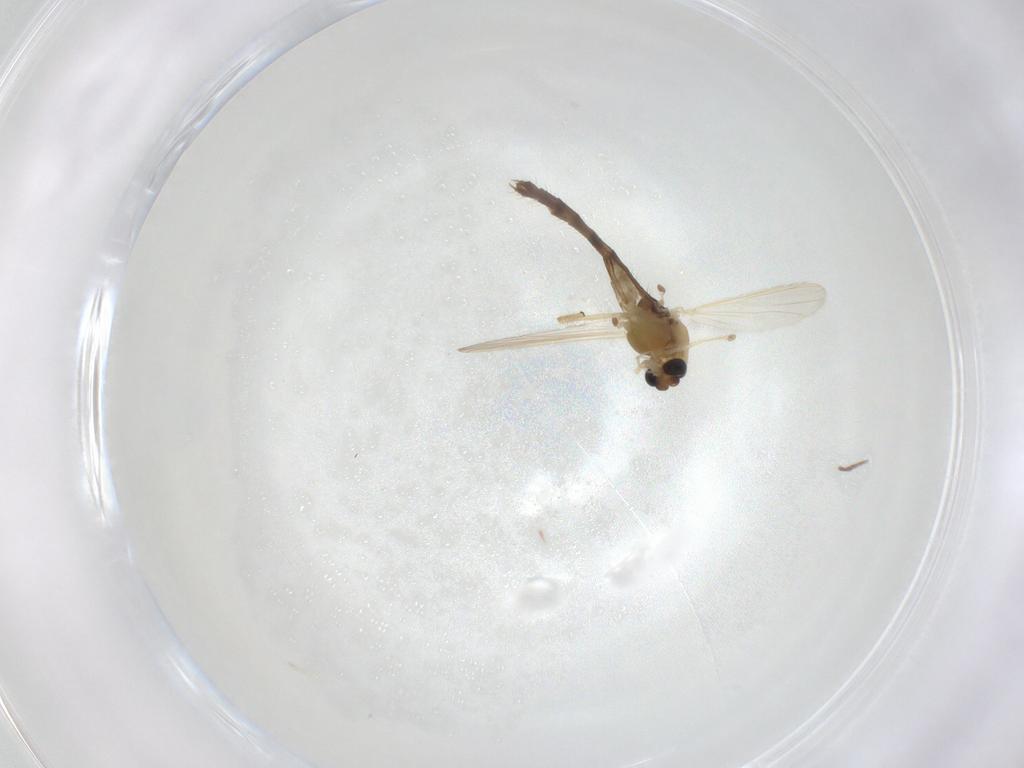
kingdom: Animalia
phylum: Arthropoda
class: Insecta
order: Diptera
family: Chironomidae
